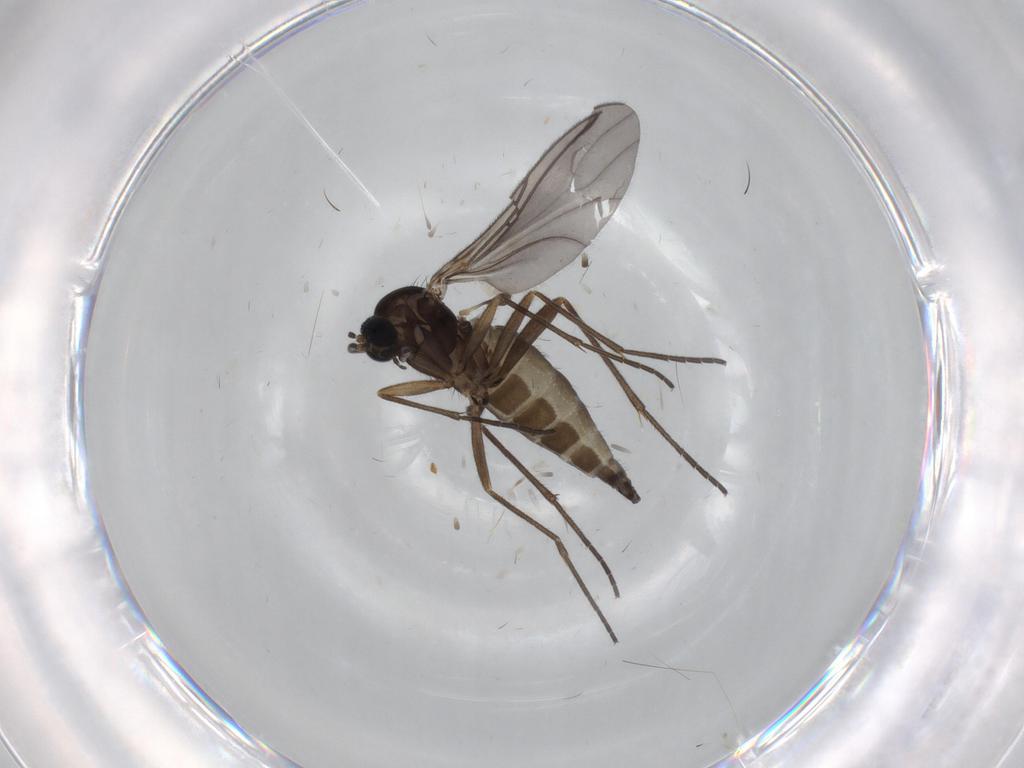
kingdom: Animalia
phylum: Arthropoda
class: Insecta
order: Diptera
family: Sciaridae
